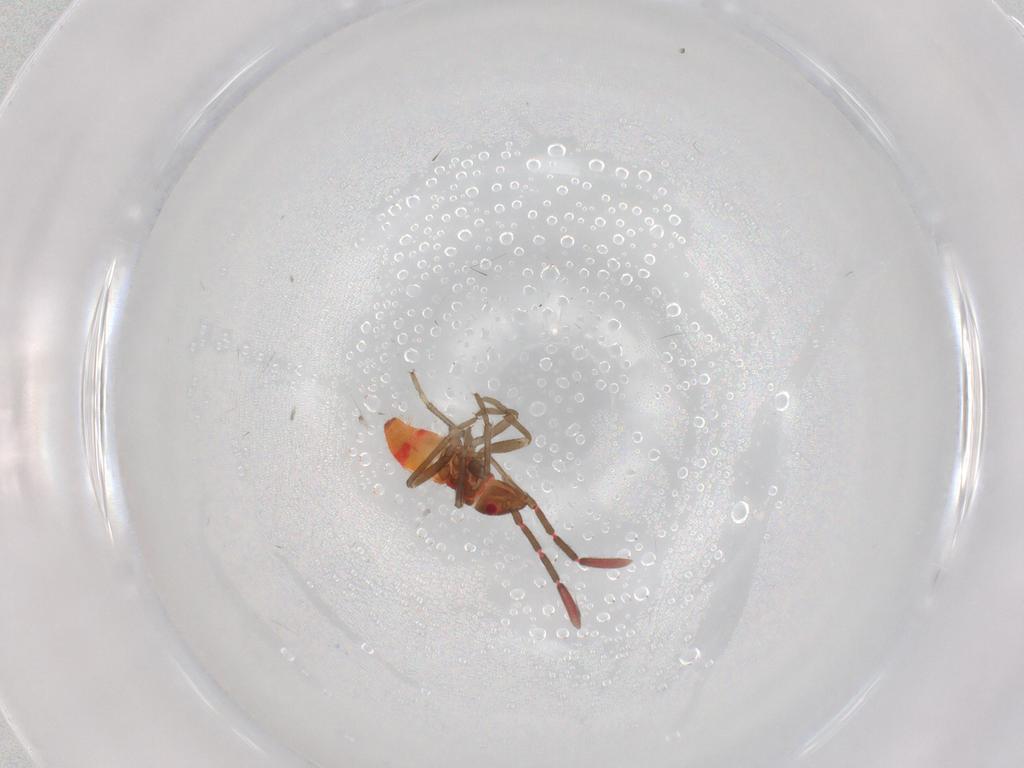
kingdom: Animalia
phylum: Arthropoda
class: Insecta
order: Hemiptera
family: Rhyparochromidae
